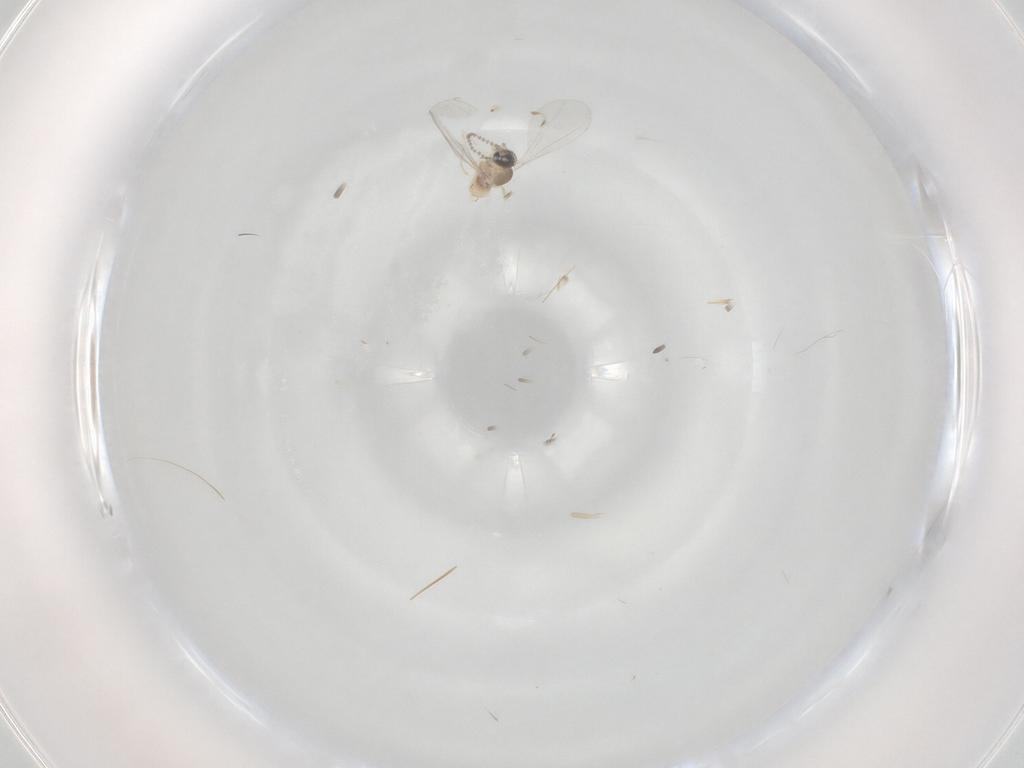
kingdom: Animalia
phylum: Arthropoda
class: Insecta
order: Diptera
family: Cecidomyiidae
